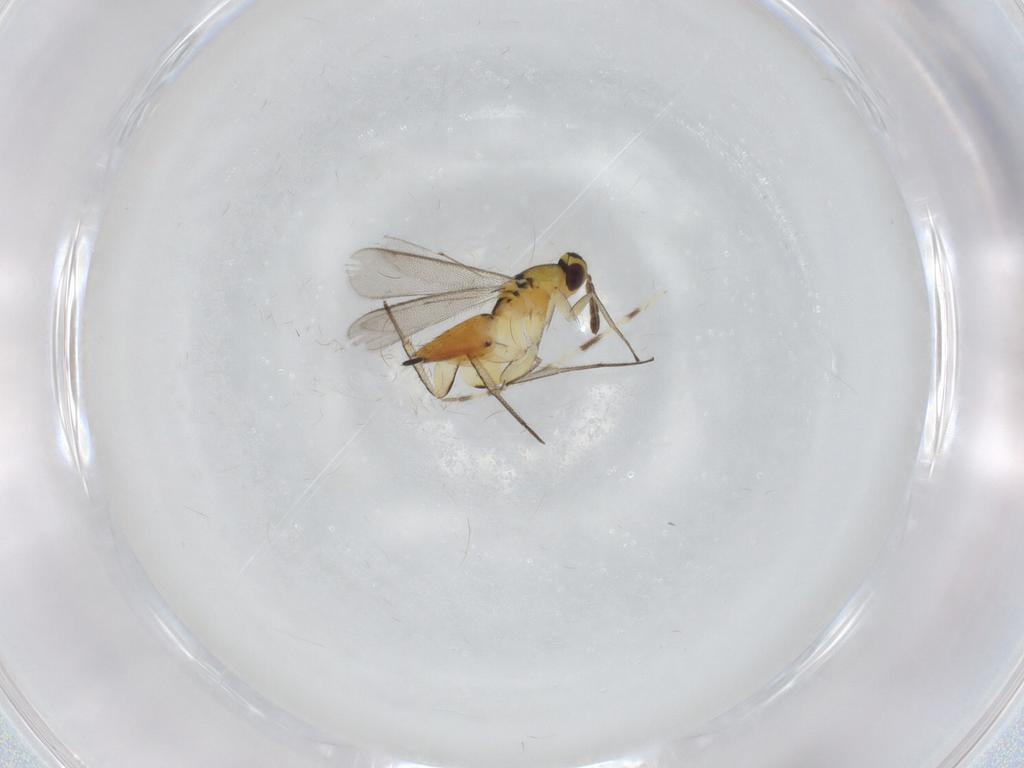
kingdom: Animalia
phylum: Arthropoda
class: Insecta
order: Hymenoptera
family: Eulophidae
